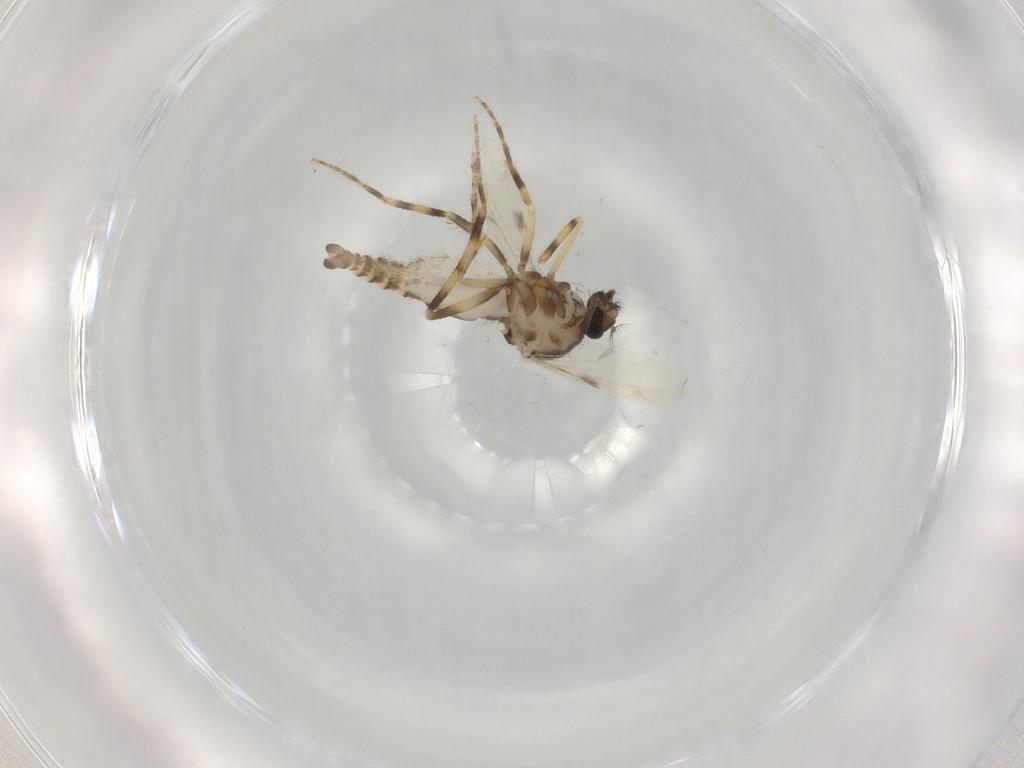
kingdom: Animalia
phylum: Arthropoda
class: Insecta
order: Diptera
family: Ceratopogonidae
